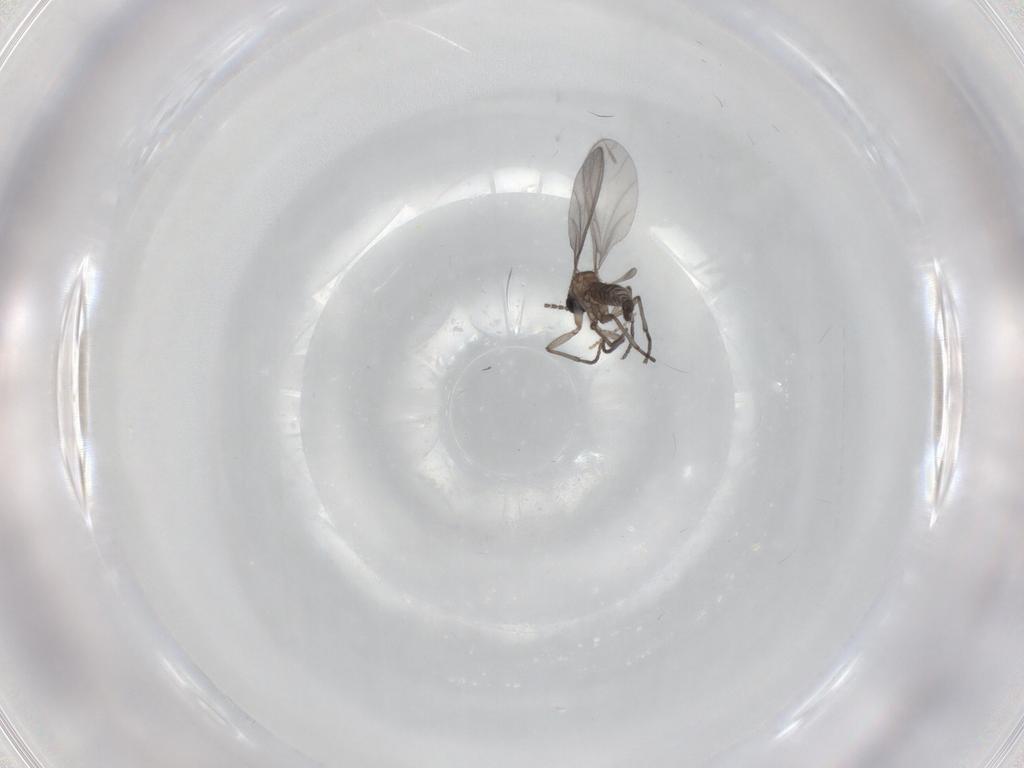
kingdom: Animalia
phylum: Arthropoda
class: Insecta
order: Diptera
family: Sciaridae
